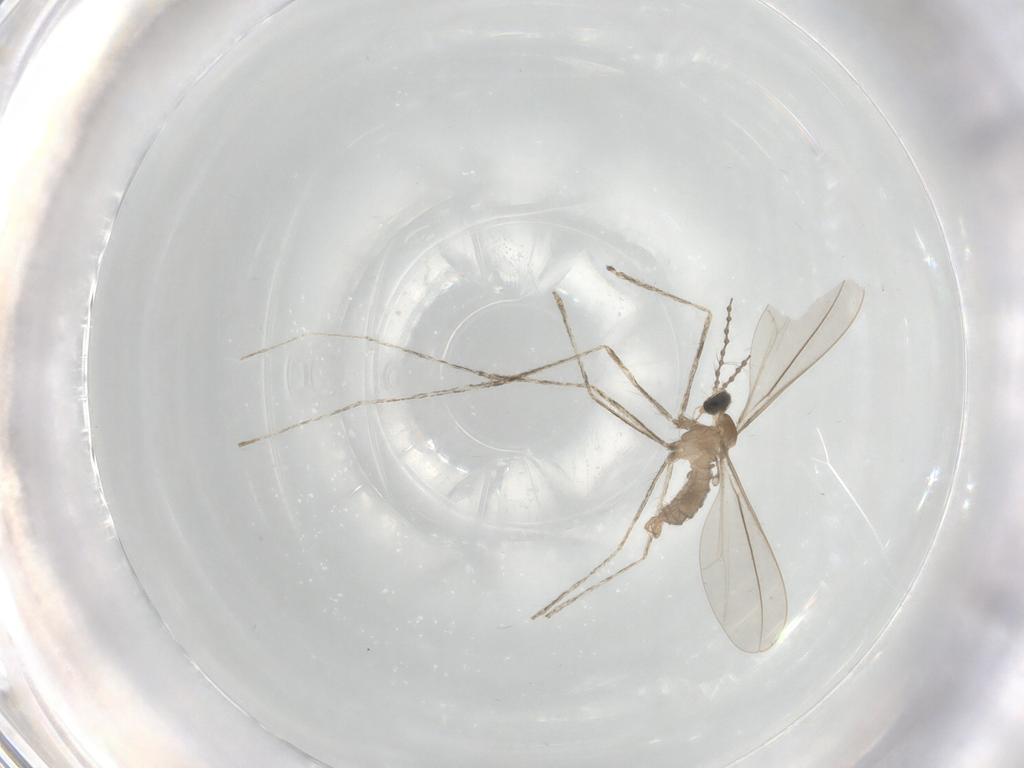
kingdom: Animalia
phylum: Arthropoda
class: Insecta
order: Diptera
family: Cecidomyiidae
